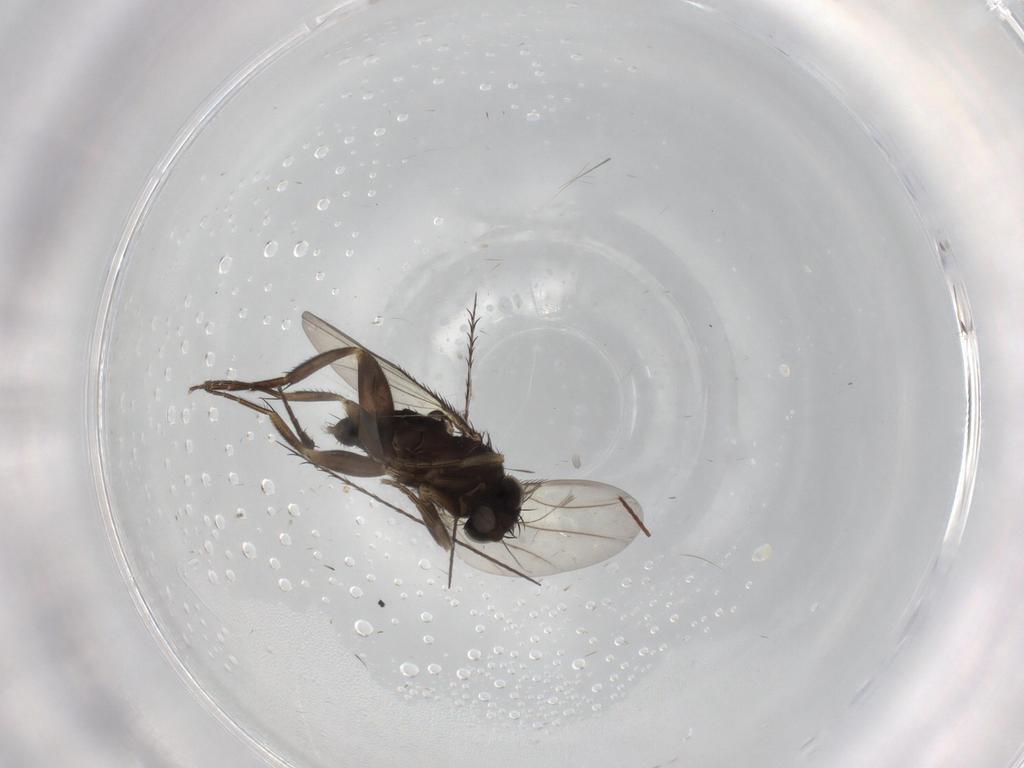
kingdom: Animalia
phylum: Arthropoda
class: Insecta
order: Diptera
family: Phoridae
